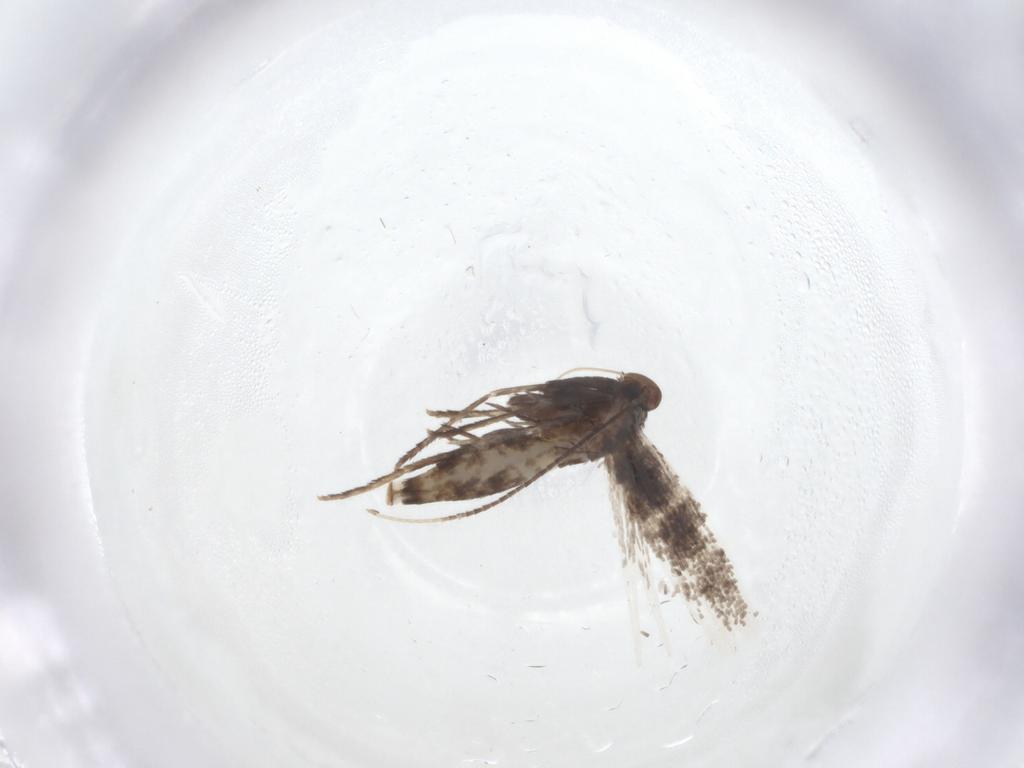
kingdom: Animalia
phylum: Arthropoda
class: Insecta
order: Lepidoptera
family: Gracillariidae
